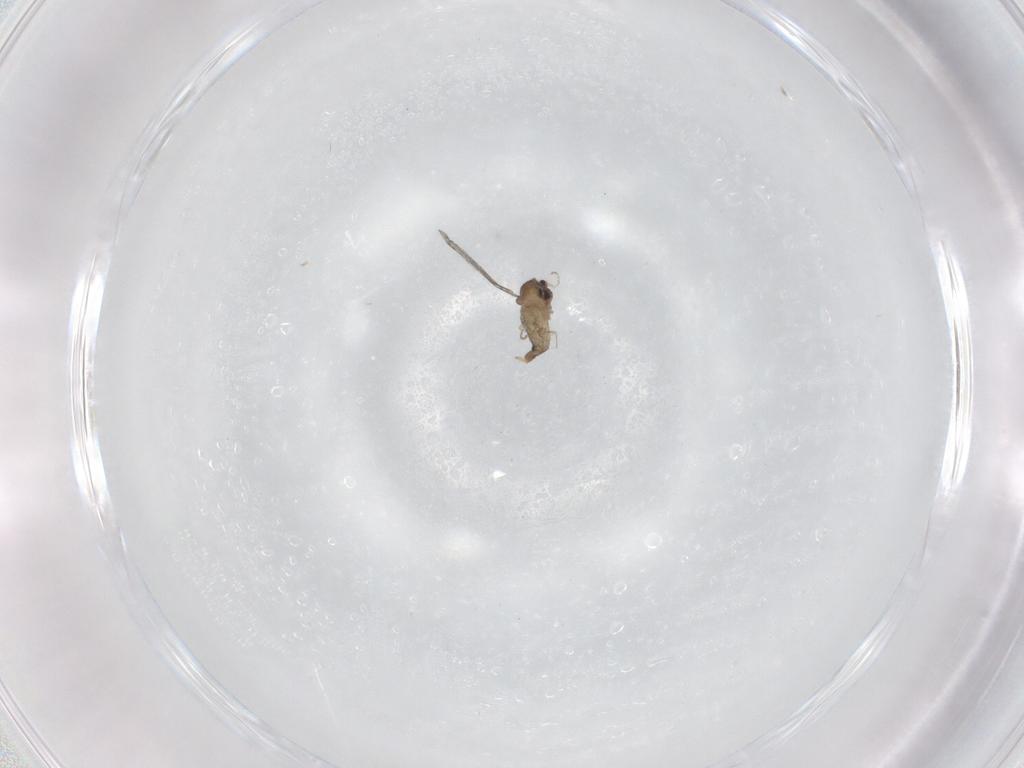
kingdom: Animalia
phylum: Arthropoda
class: Insecta
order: Diptera
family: Cecidomyiidae
